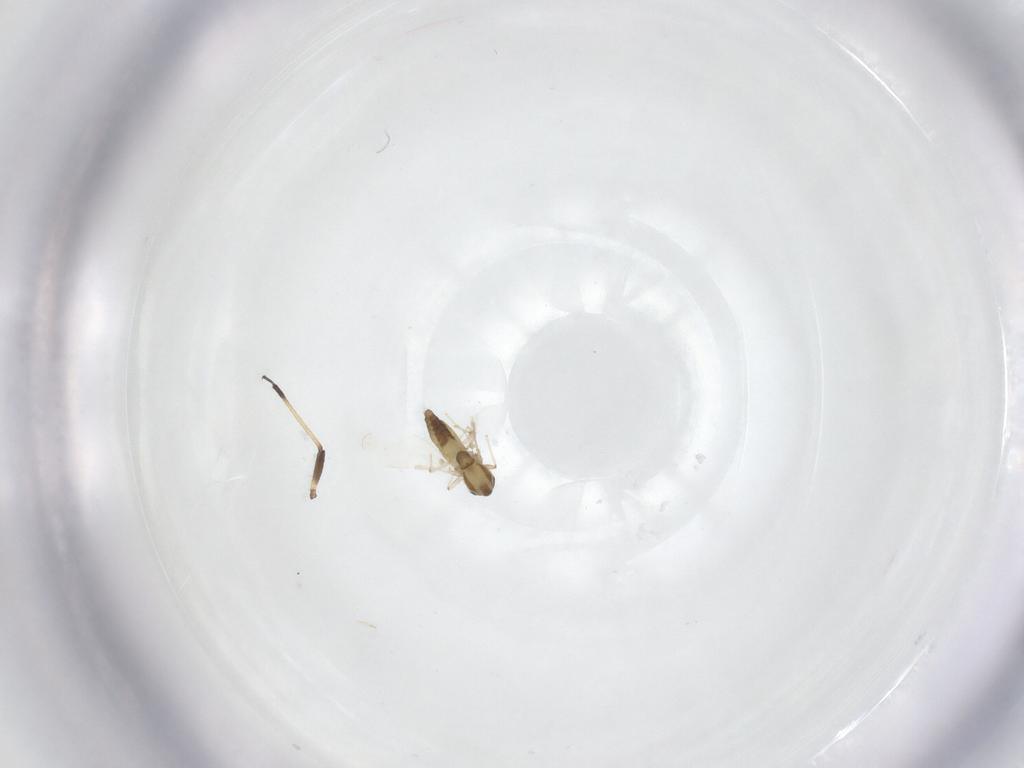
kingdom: Animalia
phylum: Arthropoda
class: Insecta
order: Diptera
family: Chironomidae
